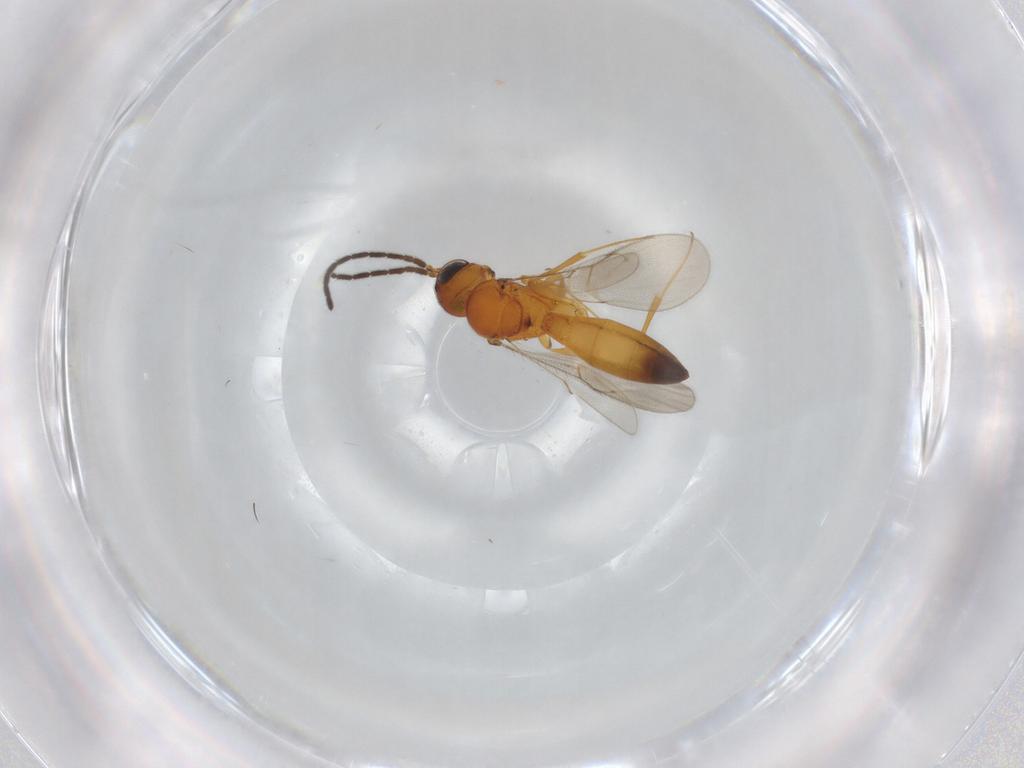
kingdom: Animalia
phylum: Arthropoda
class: Insecta
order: Hymenoptera
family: Scelionidae
